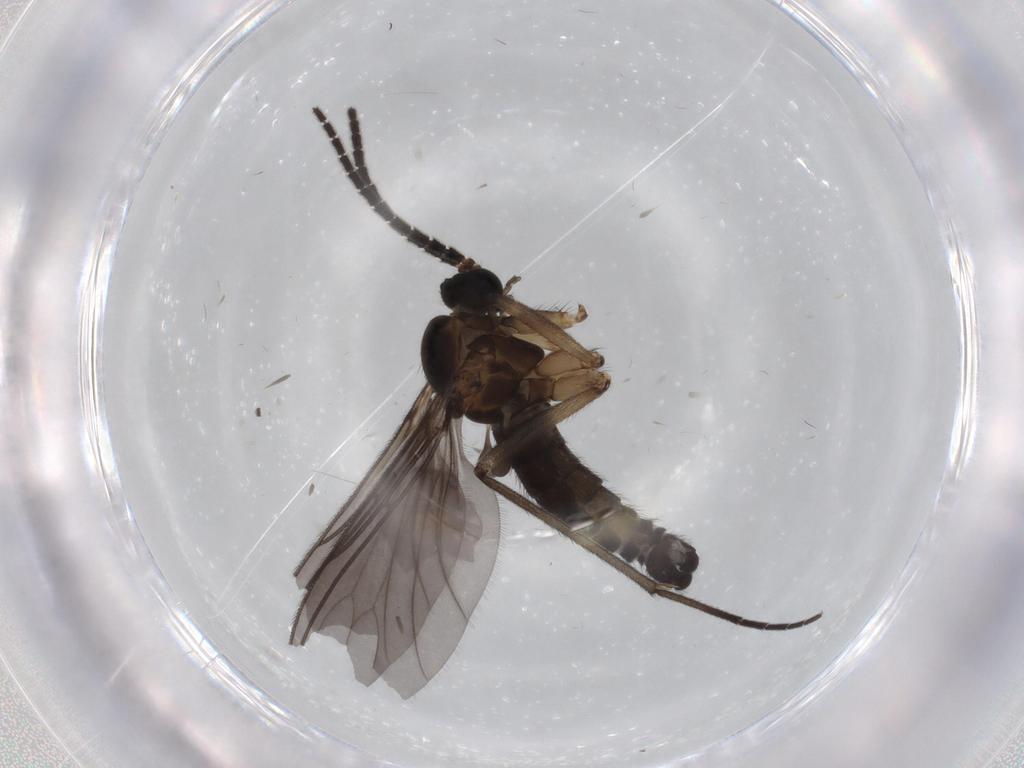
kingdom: Animalia
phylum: Arthropoda
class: Insecta
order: Diptera
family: Sciaridae
